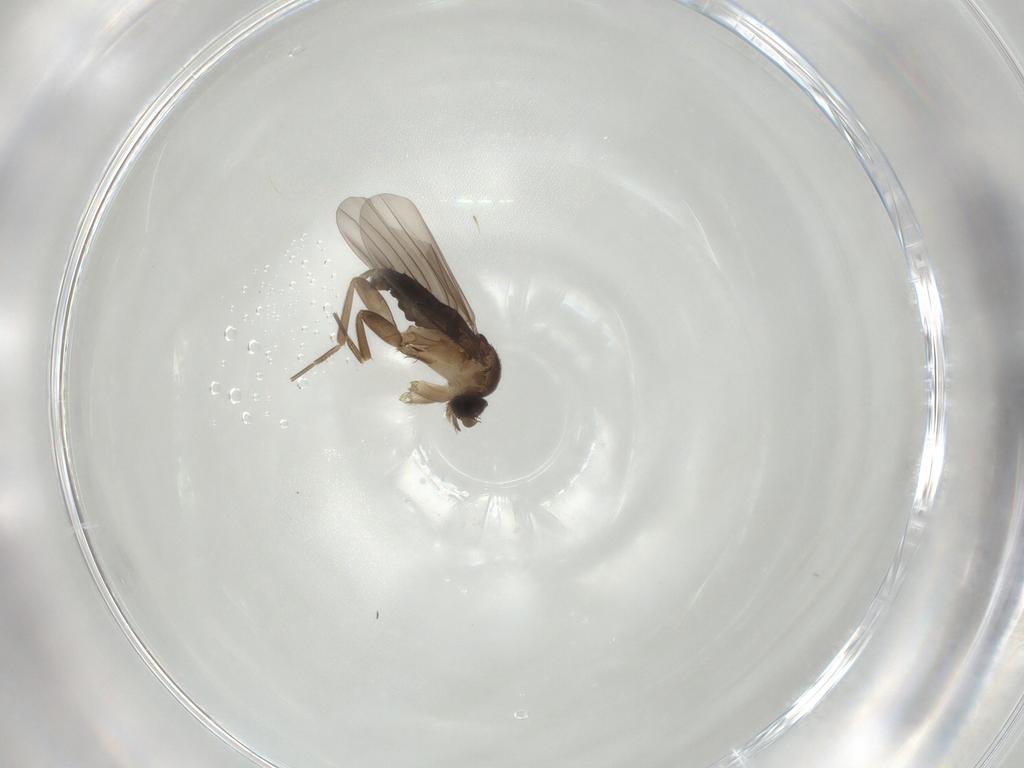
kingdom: Animalia
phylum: Arthropoda
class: Insecta
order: Diptera
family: Phoridae
